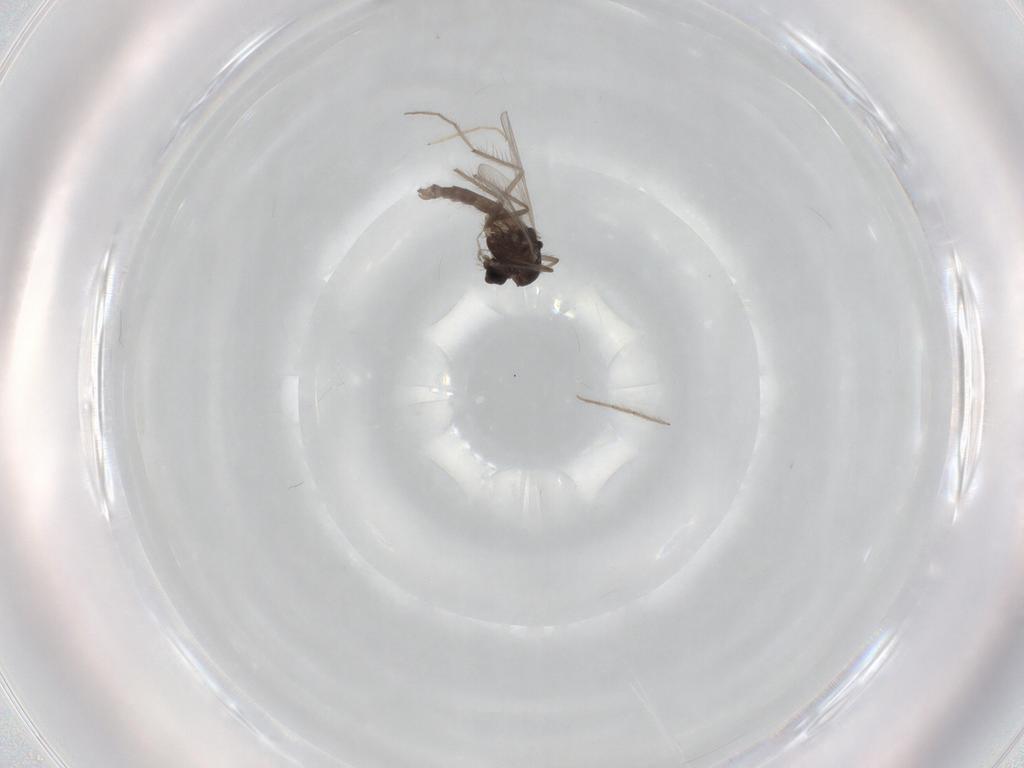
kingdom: Animalia
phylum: Arthropoda
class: Insecta
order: Diptera
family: Chironomidae
